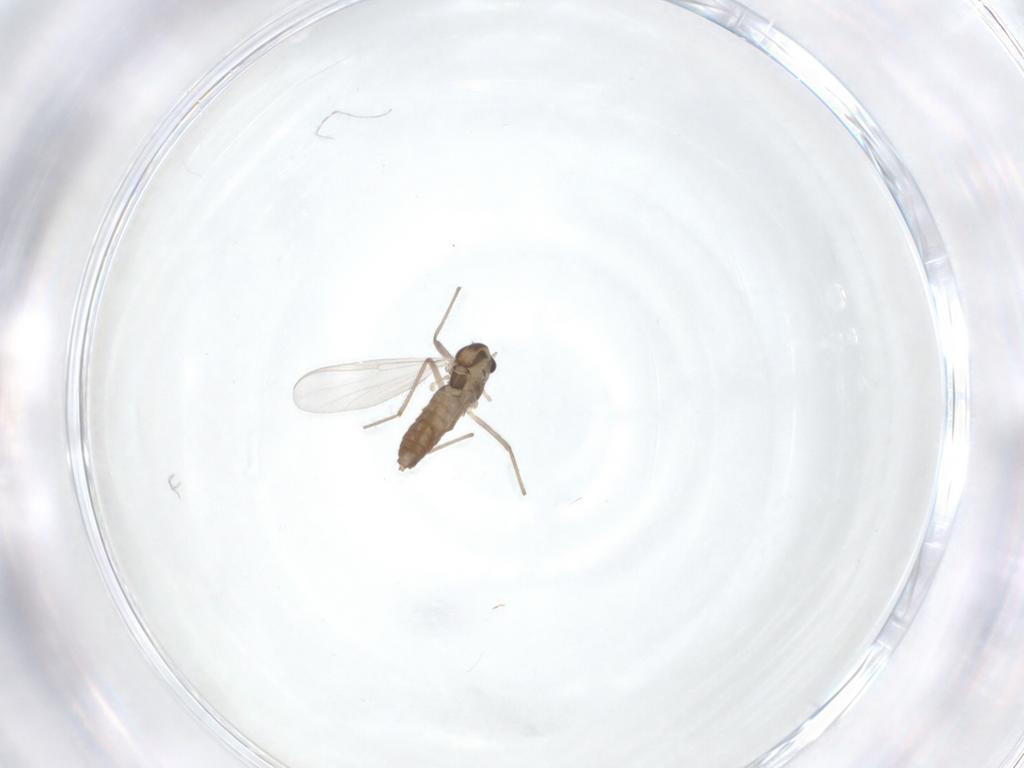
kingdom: Animalia
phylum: Arthropoda
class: Insecta
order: Diptera
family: Chironomidae
